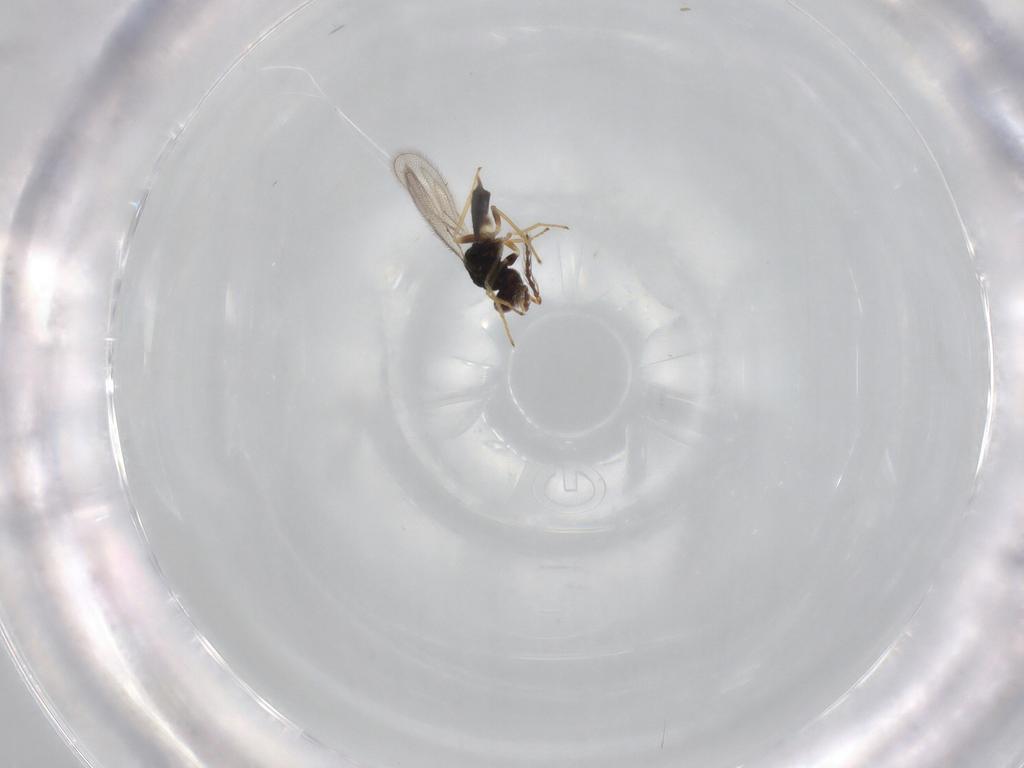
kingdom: Animalia
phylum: Arthropoda
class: Insecta
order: Hymenoptera
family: Eulophidae
